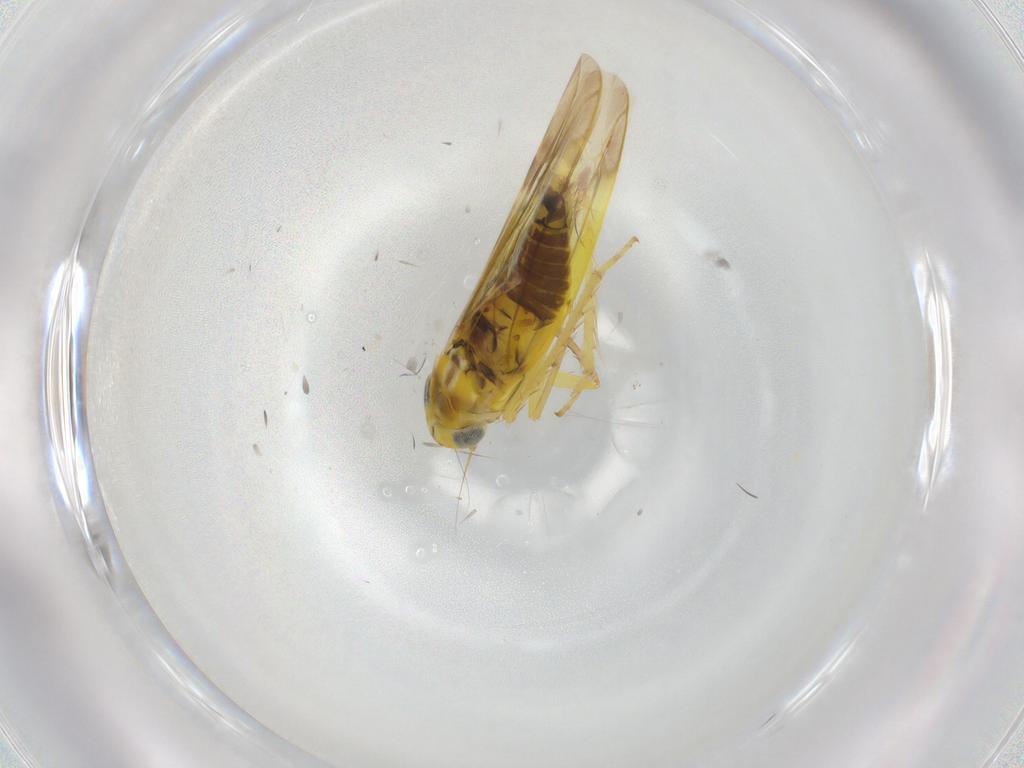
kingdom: Animalia
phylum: Arthropoda
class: Insecta
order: Hemiptera
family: Cicadellidae
